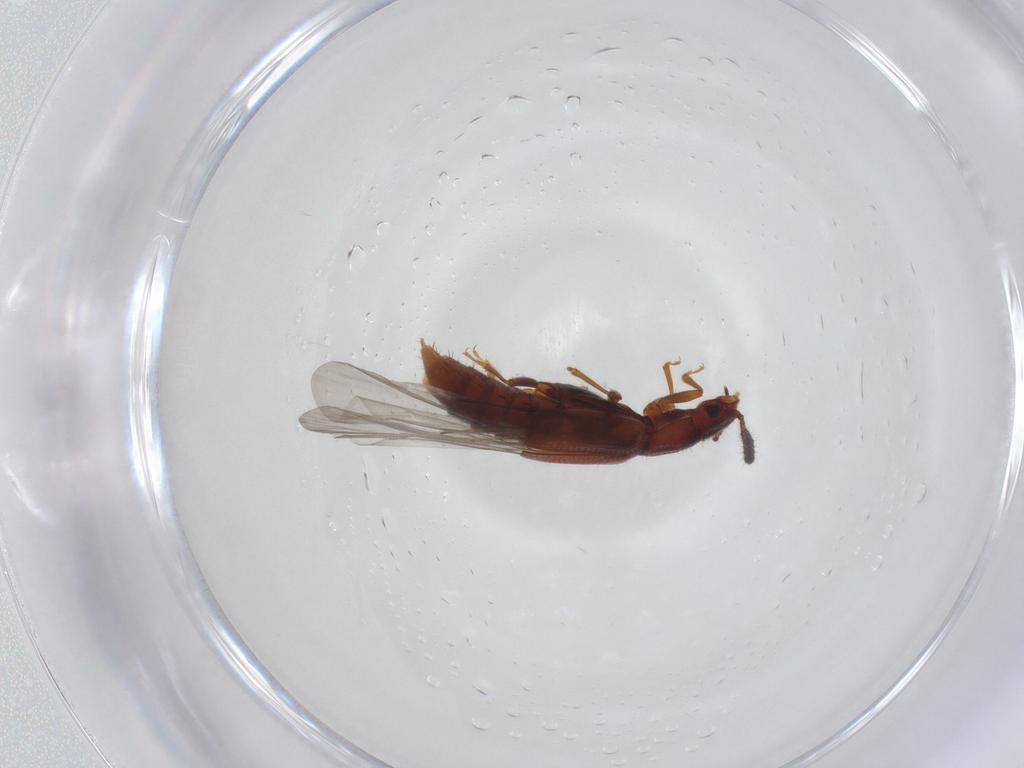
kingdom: Animalia
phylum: Arthropoda
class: Insecta
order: Coleoptera
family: Staphylinidae
